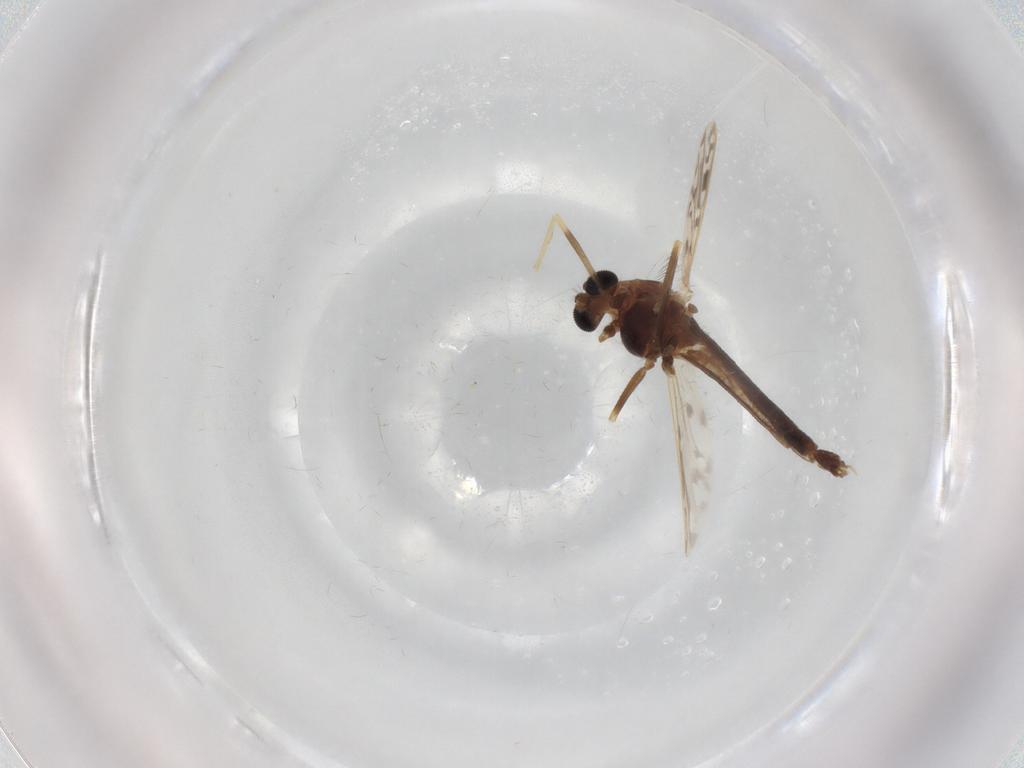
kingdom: Animalia
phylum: Arthropoda
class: Insecta
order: Diptera
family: Chironomidae
